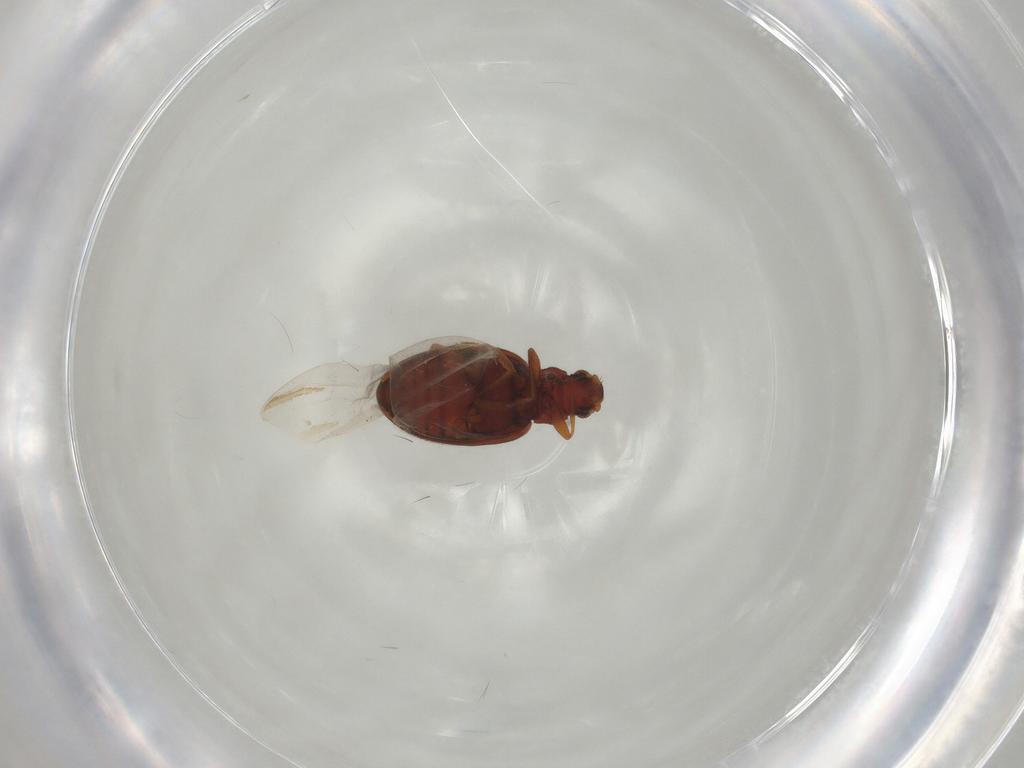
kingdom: Animalia
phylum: Arthropoda
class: Insecta
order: Coleoptera
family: Latridiidae
